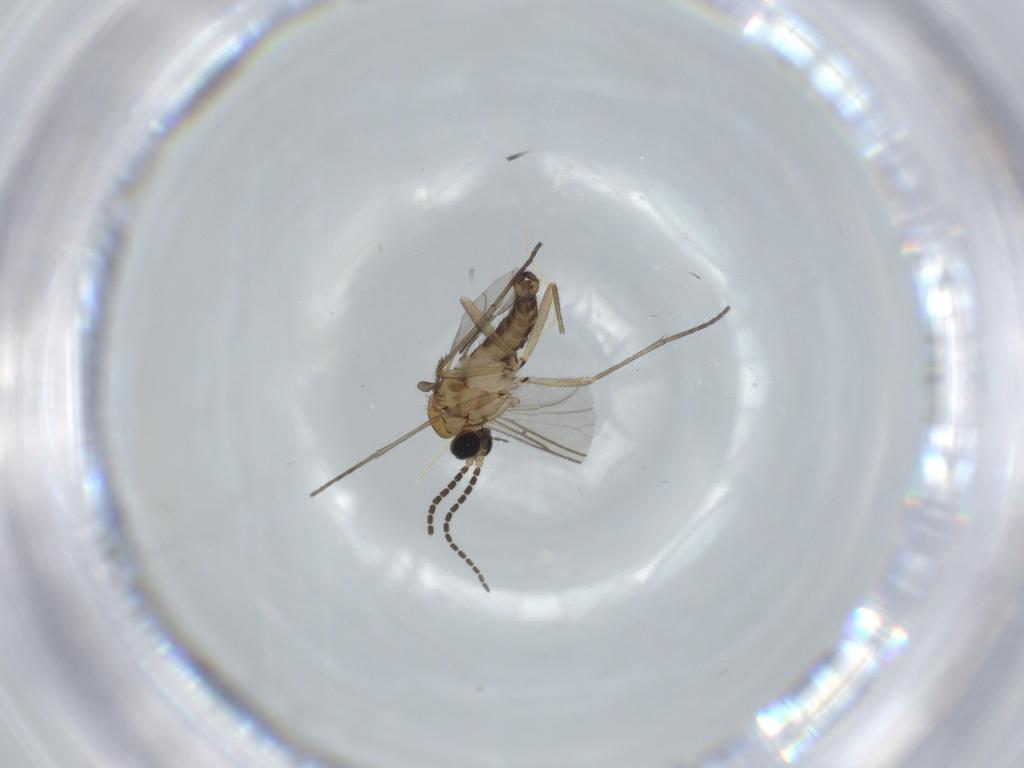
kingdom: Animalia
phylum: Arthropoda
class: Insecta
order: Diptera
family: Sciaridae
